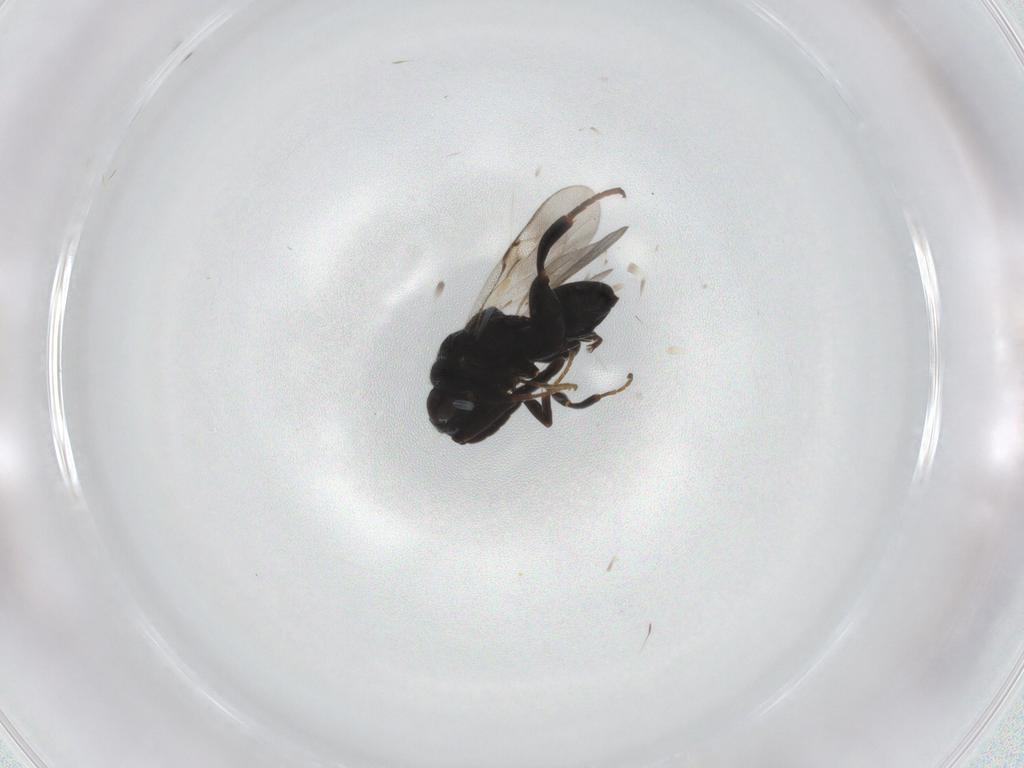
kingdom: Animalia
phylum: Arthropoda
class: Insecta
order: Hymenoptera
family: Chalcididae
